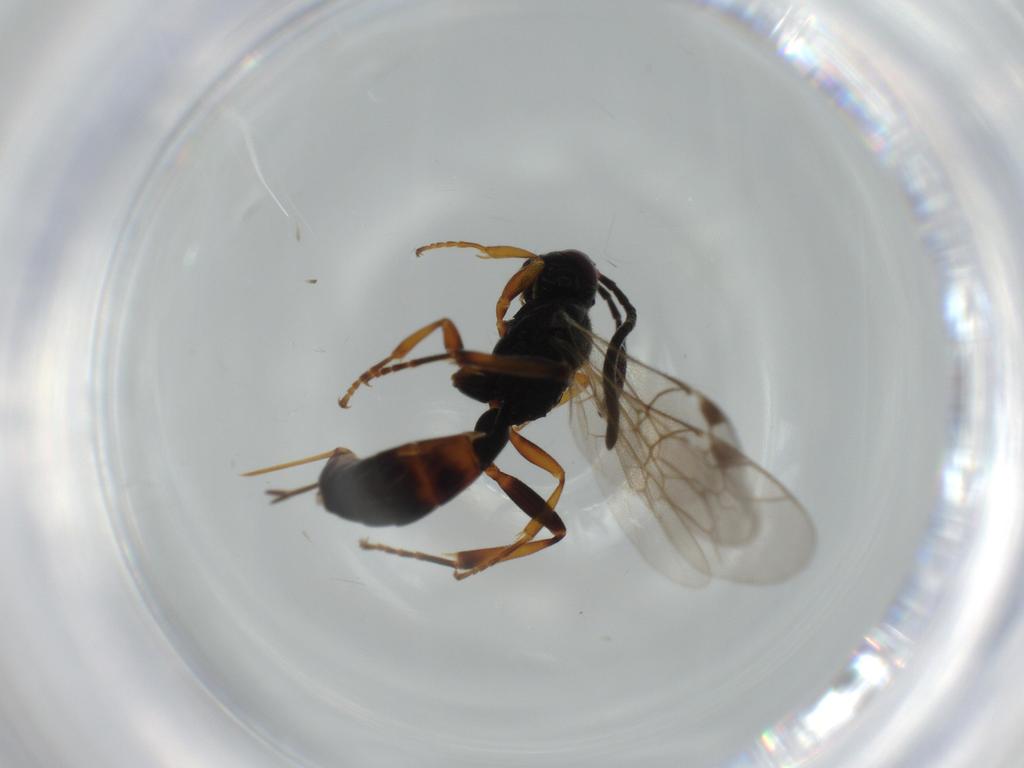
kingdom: Animalia
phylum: Arthropoda
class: Insecta
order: Hymenoptera
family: Ichneumonidae
